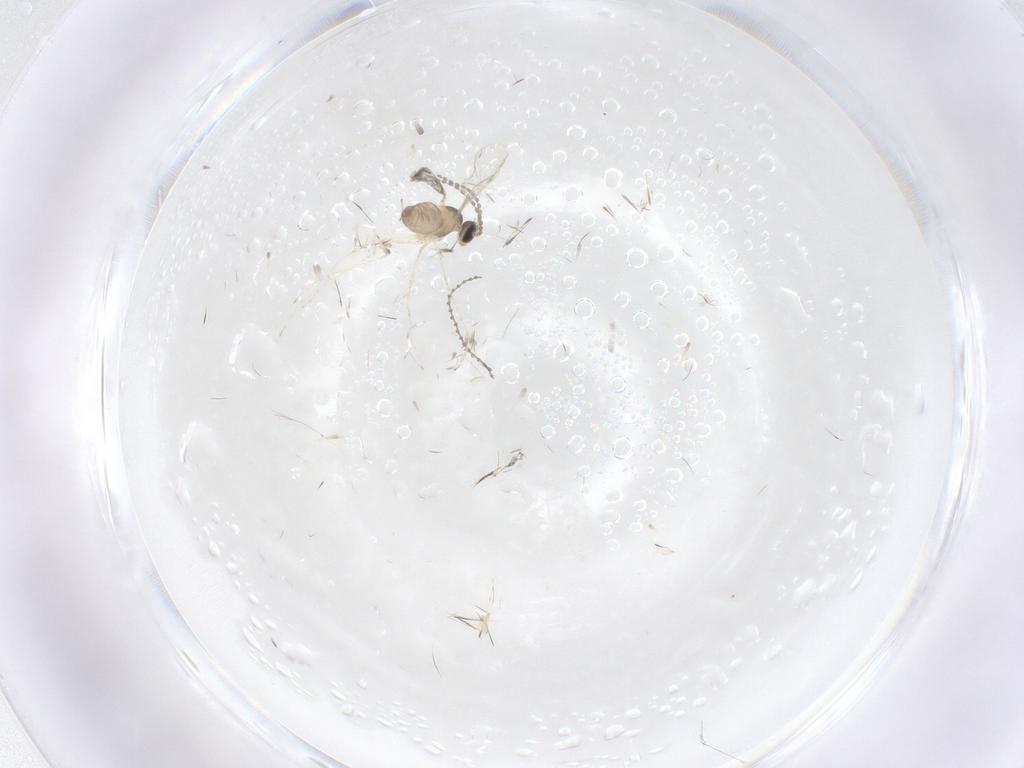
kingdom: Animalia
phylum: Arthropoda
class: Insecta
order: Diptera
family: Cecidomyiidae
